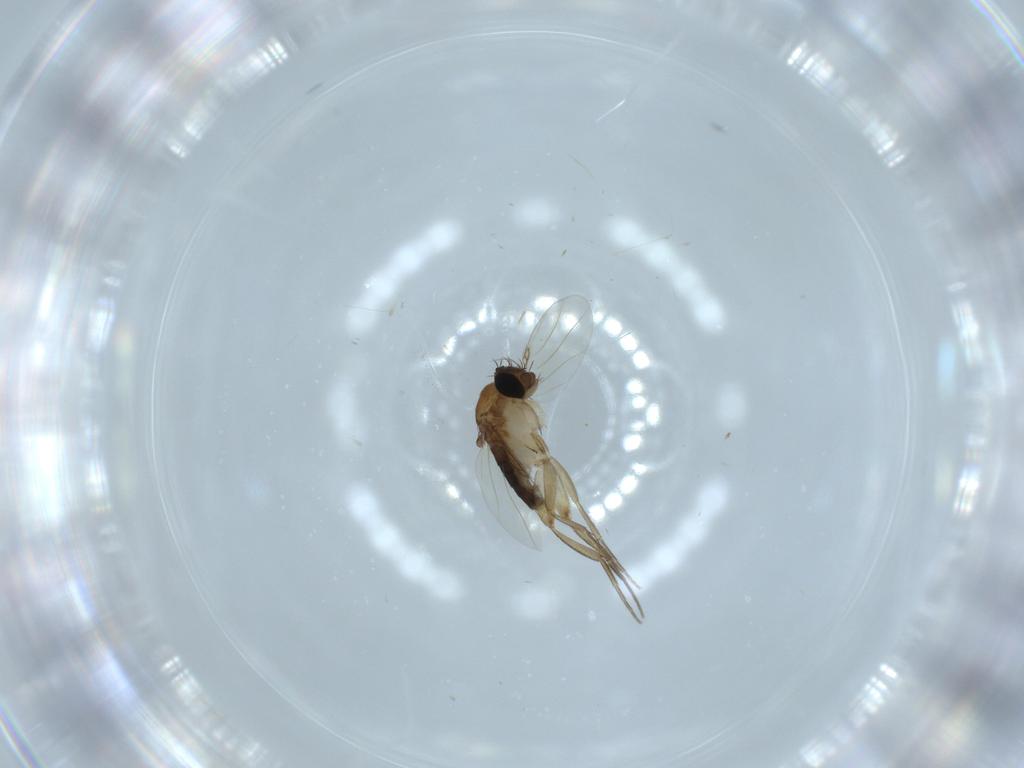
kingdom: Animalia
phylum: Arthropoda
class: Insecta
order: Diptera
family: Phoridae
